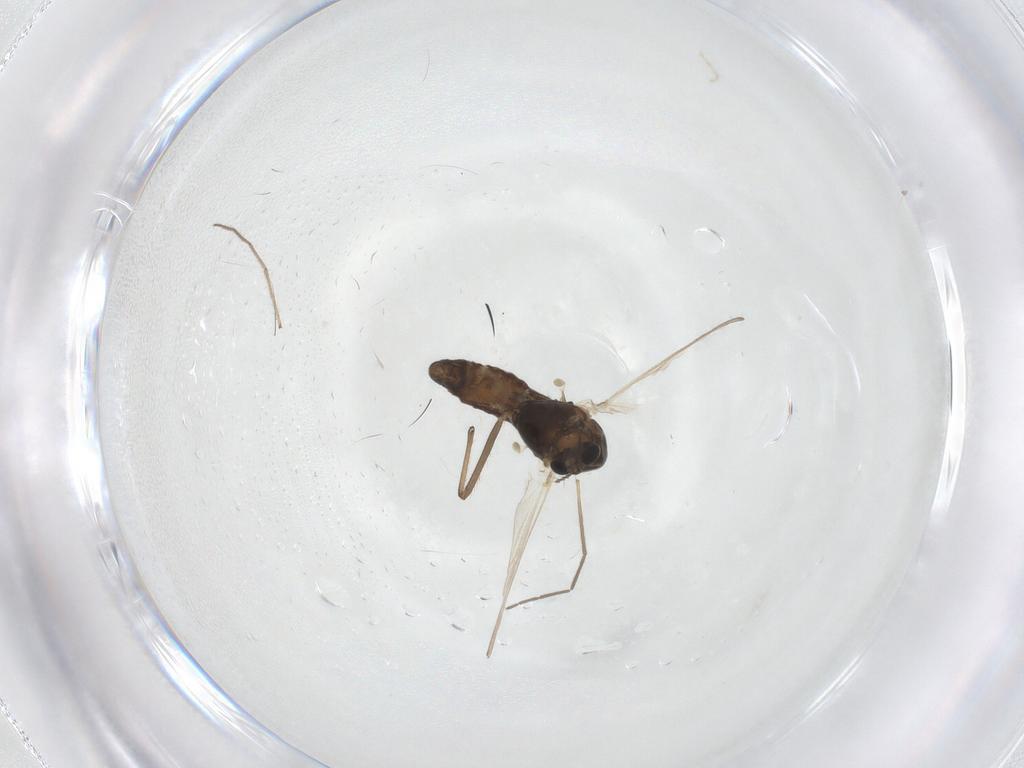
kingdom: Animalia
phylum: Arthropoda
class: Insecta
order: Diptera
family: Chironomidae
